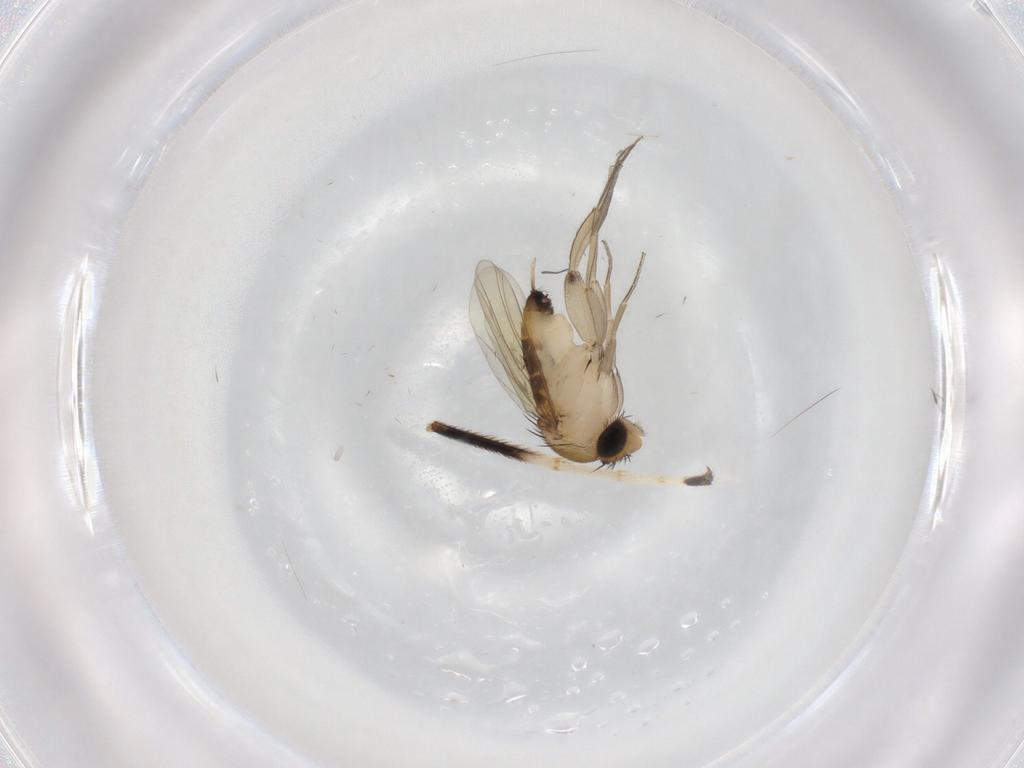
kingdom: Animalia
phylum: Arthropoda
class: Insecta
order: Diptera
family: Phoridae
